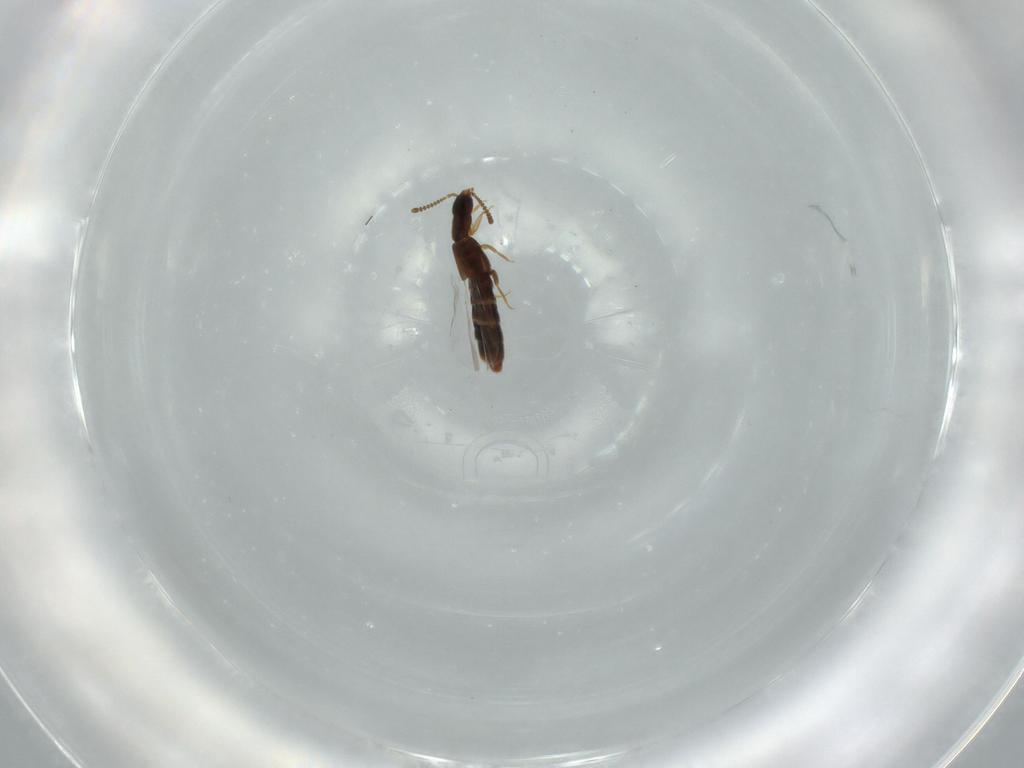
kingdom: Animalia
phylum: Arthropoda
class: Insecta
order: Coleoptera
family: Staphylinidae
